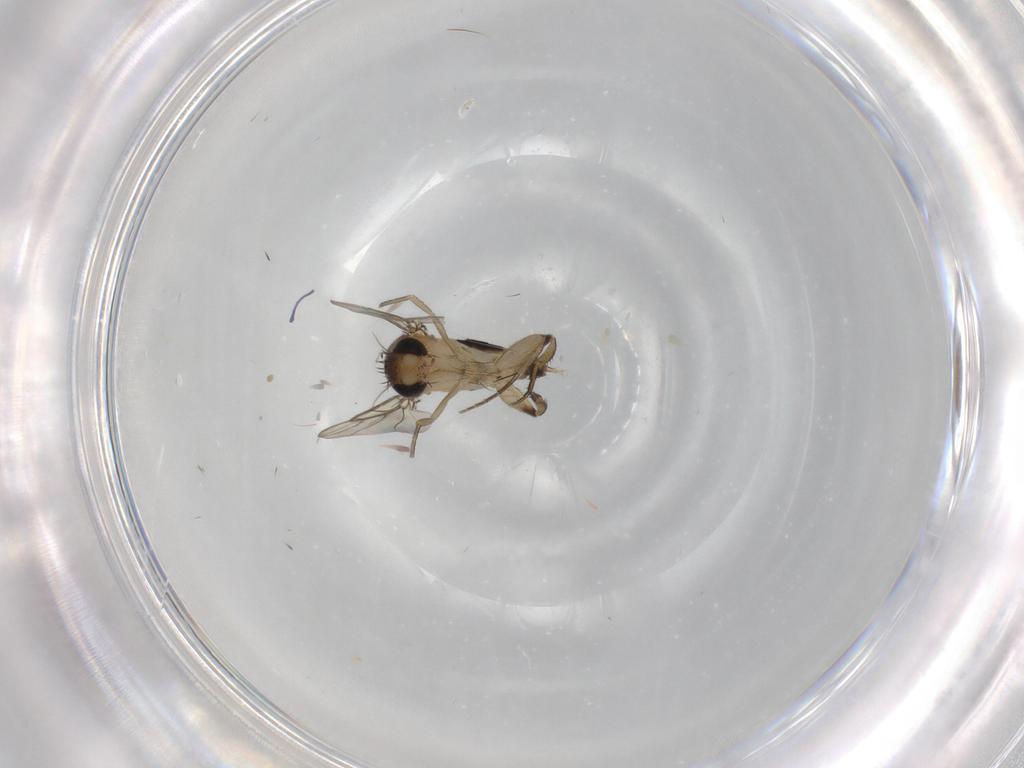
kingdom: Animalia
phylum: Arthropoda
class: Insecta
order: Diptera
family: Phoridae
